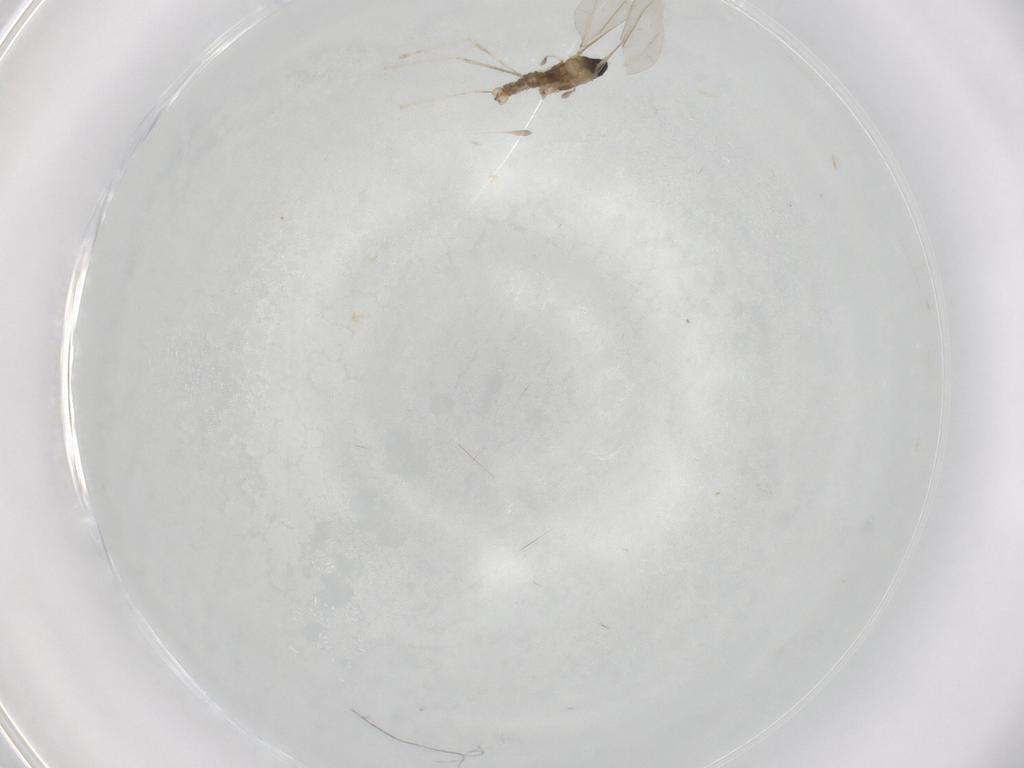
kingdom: Animalia
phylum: Arthropoda
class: Insecta
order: Diptera
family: Cecidomyiidae
